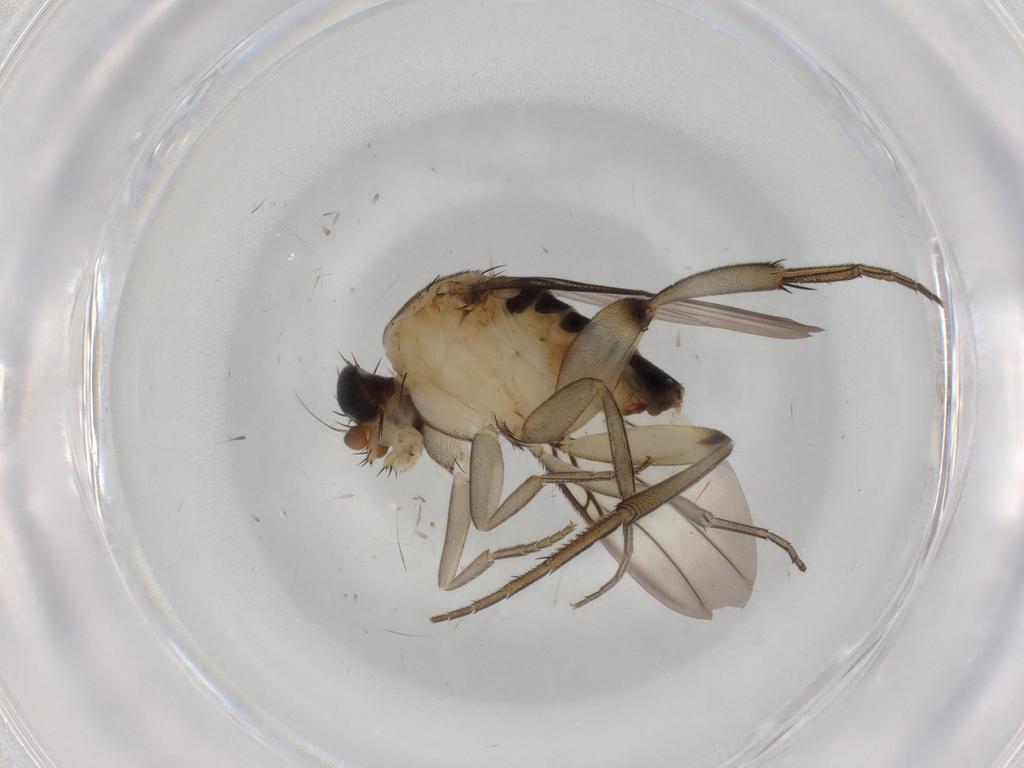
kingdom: Animalia
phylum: Arthropoda
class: Insecta
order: Diptera
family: Phoridae
